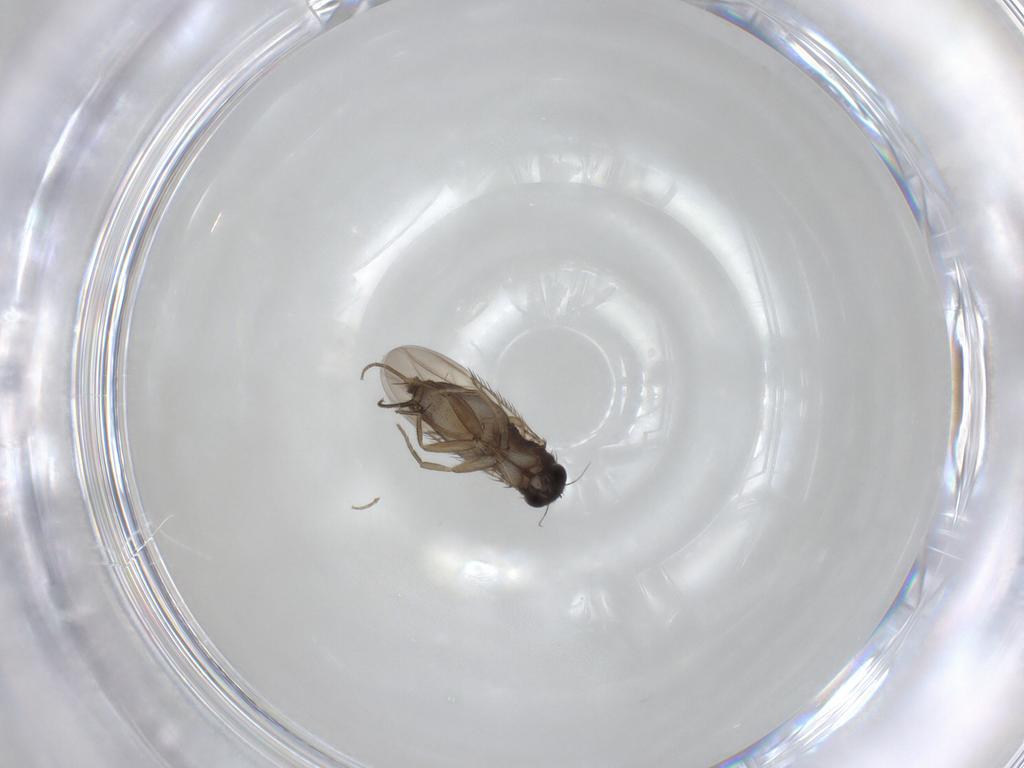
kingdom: Animalia
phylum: Arthropoda
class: Insecta
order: Diptera
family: Phoridae
